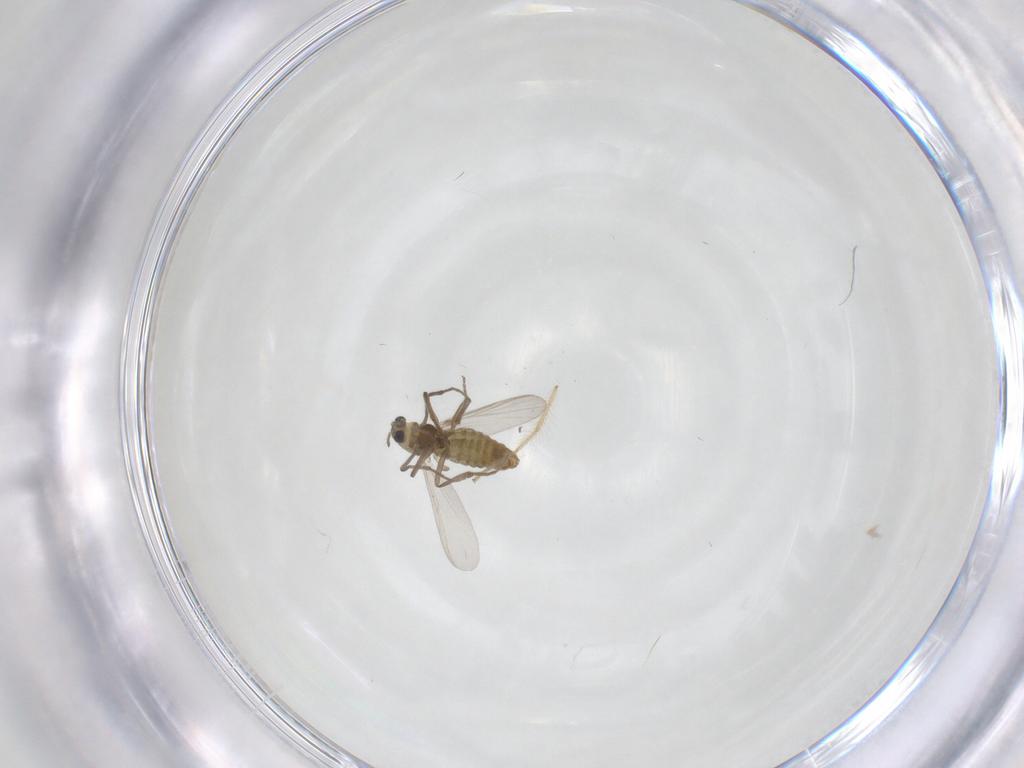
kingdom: Animalia
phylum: Arthropoda
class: Insecta
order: Diptera
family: Chironomidae
